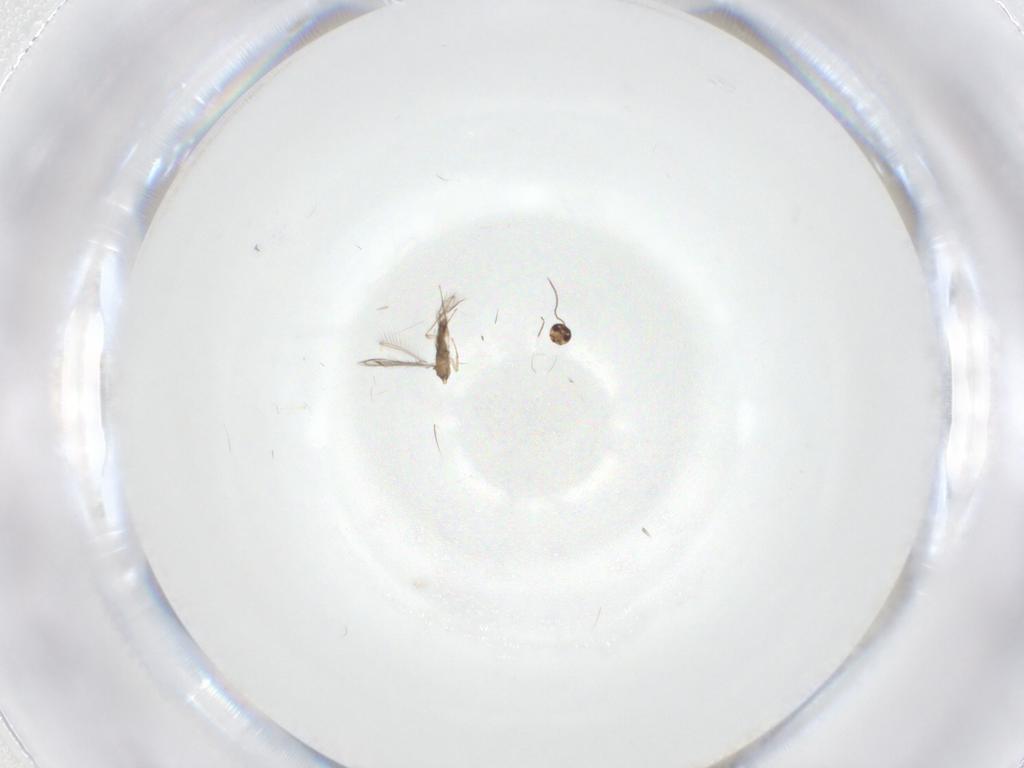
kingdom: Animalia
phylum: Arthropoda
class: Insecta
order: Hymenoptera
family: Mymaridae
